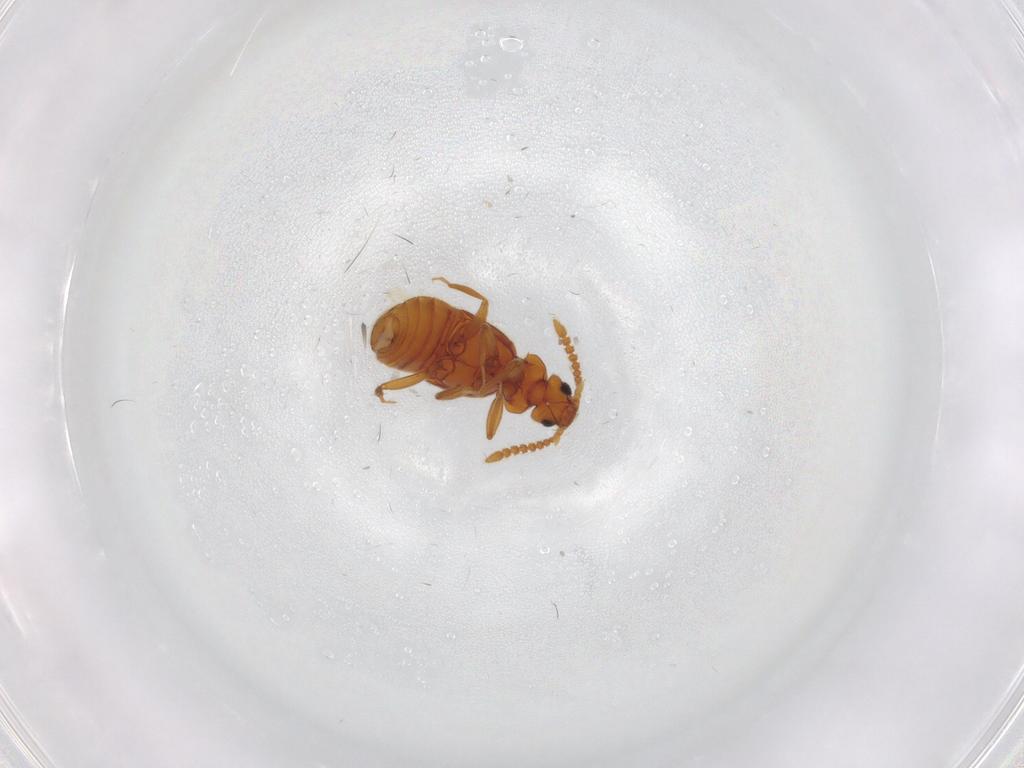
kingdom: Animalia
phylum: Arthropoda
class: Insecta
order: Coleoptera
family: Staphylinidae
